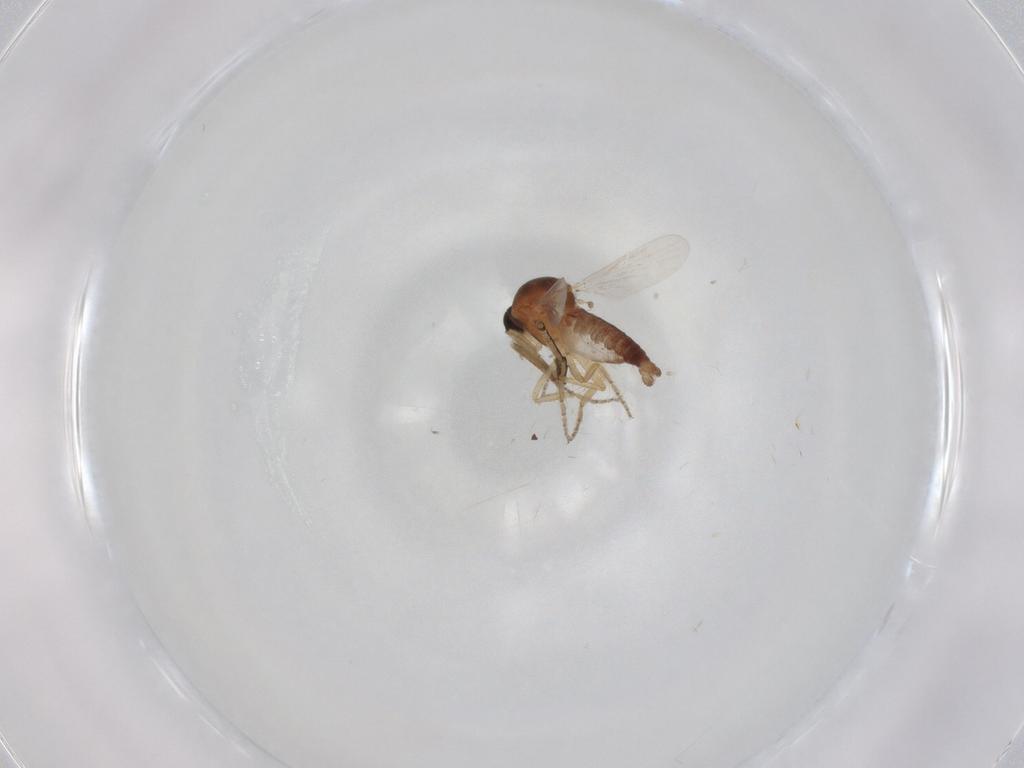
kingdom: Animalia
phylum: Arthropoda
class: Insecta
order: Diptera
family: Ceratopogonidae
